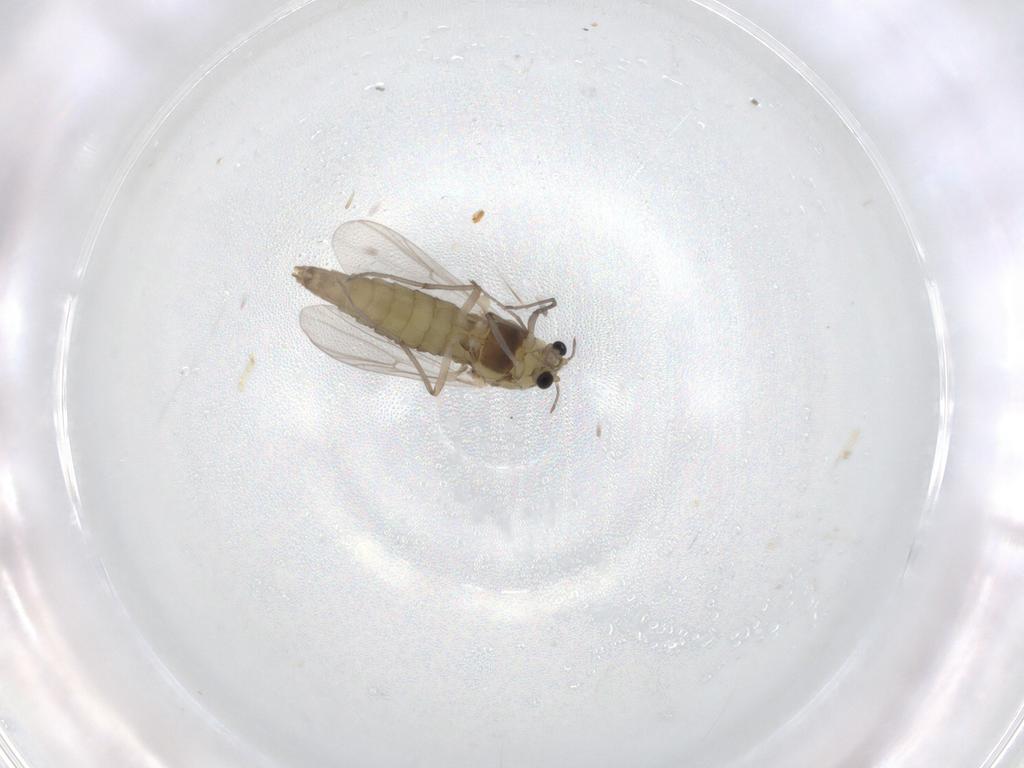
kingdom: Animalia
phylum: Arthropoda
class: Insecta
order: Diptera
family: Chironomidae
